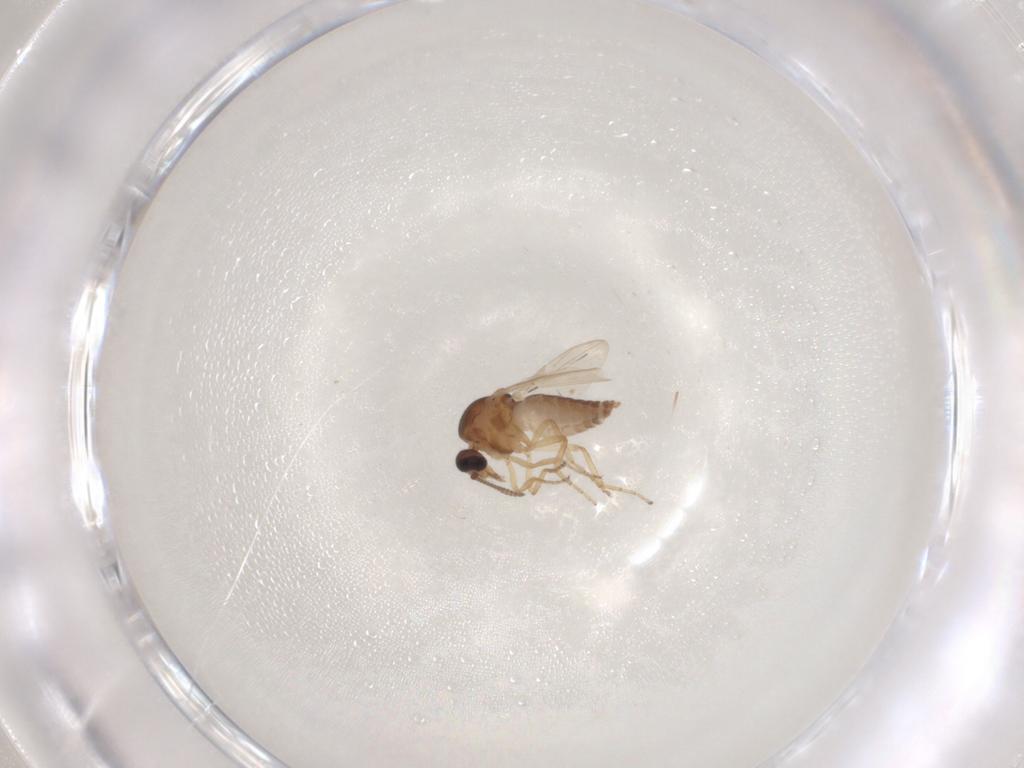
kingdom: Animalia
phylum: Arthropoda
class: Insecta
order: Diptera
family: Ceratopogonidae
